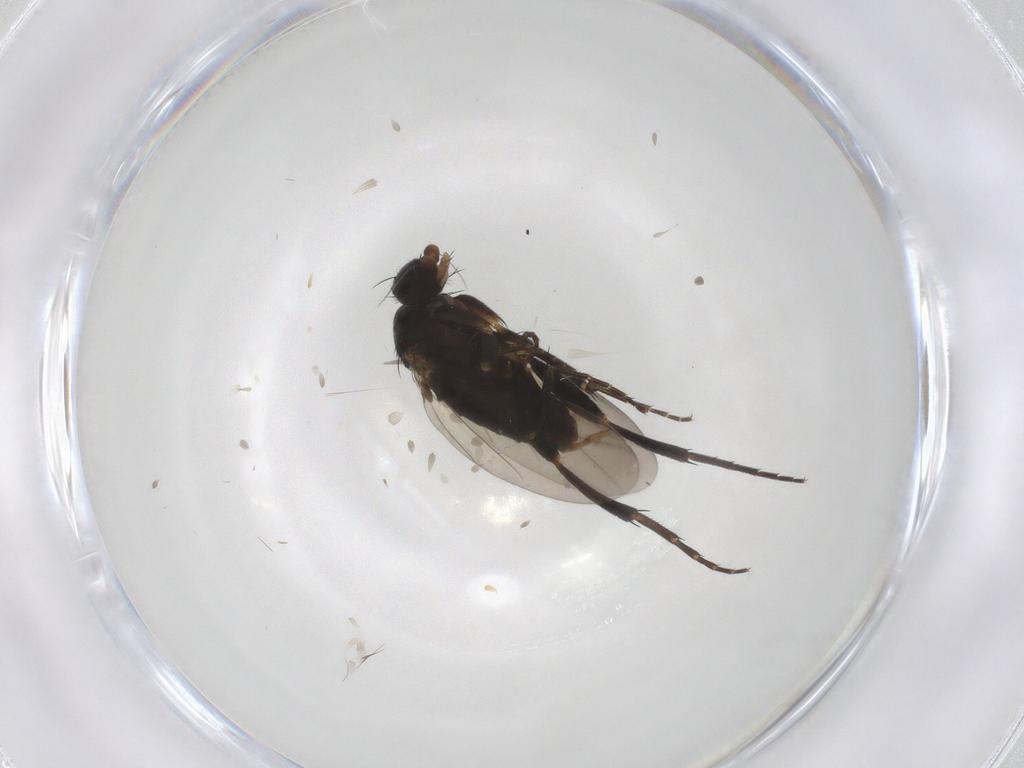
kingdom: Animalia
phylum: Arthropoda
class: Insecta
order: Diptera
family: Phoridae
